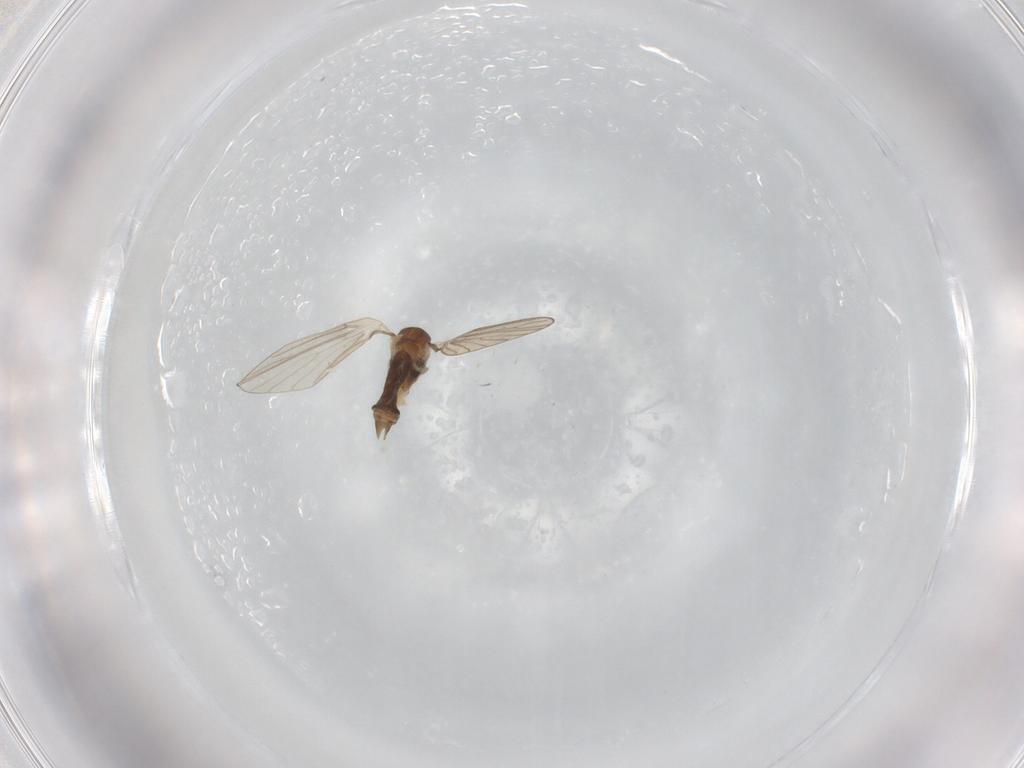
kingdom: Animalia
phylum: Arthropoda
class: Insecta
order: Diptera
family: Psychodidae
